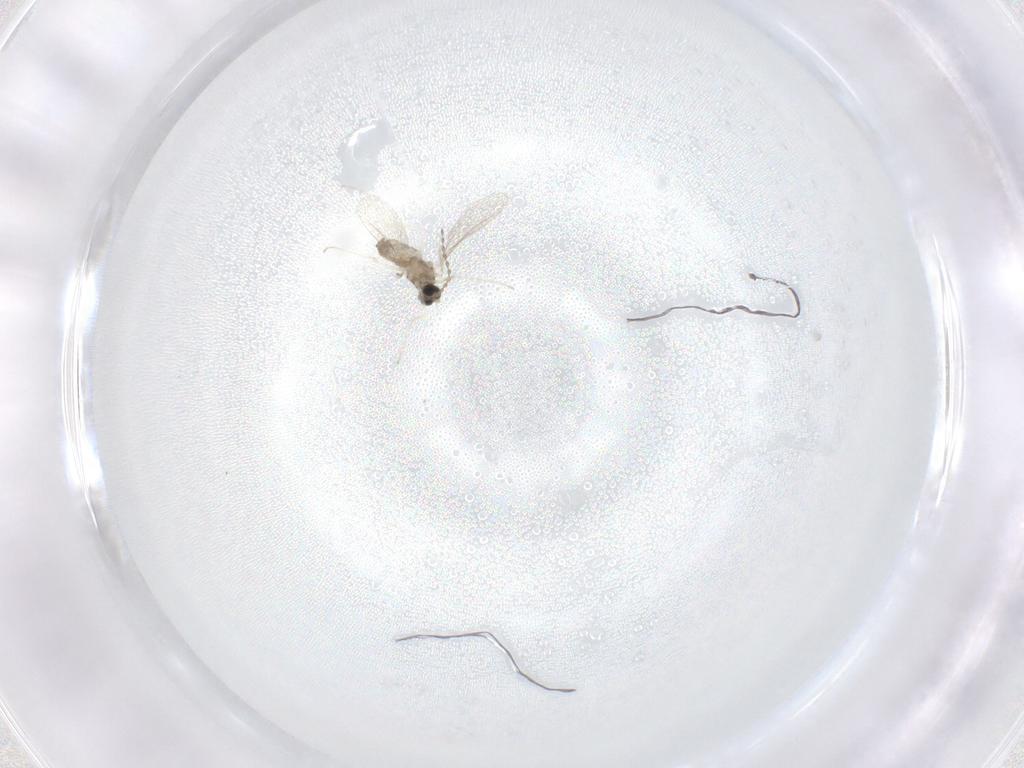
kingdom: Animalia
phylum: Arthropoda
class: Insecta
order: Diptera
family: Cecidomyiidae
